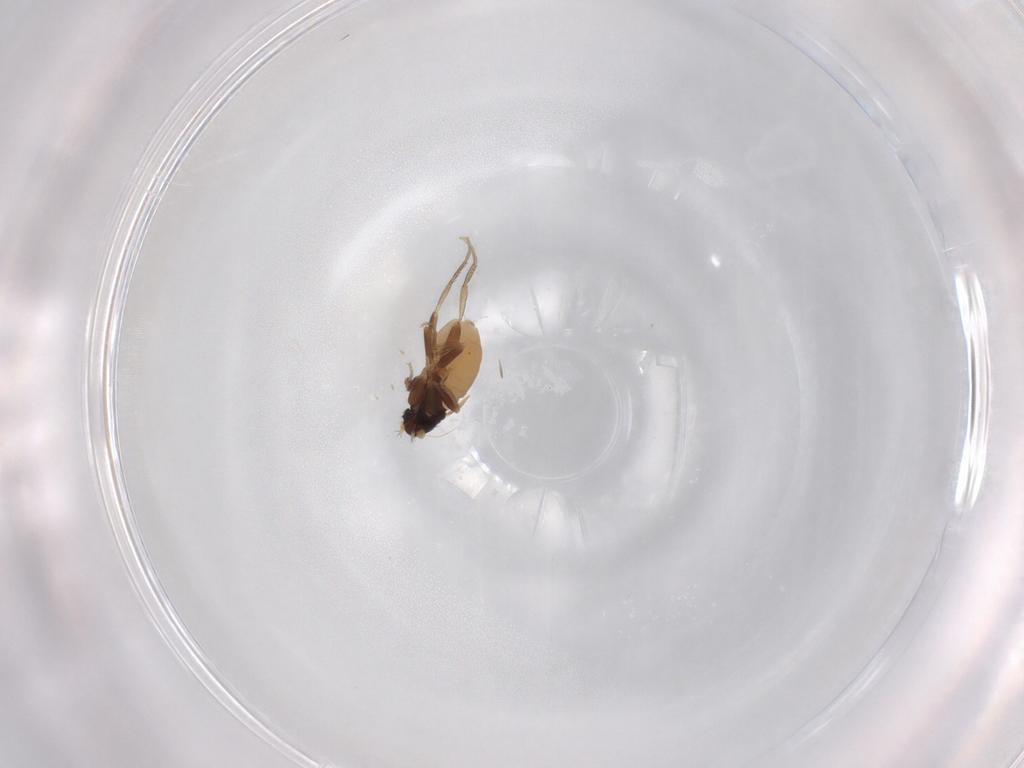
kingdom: Animalia
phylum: Arthropoda
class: Insecta
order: Diptera
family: Phoridae
